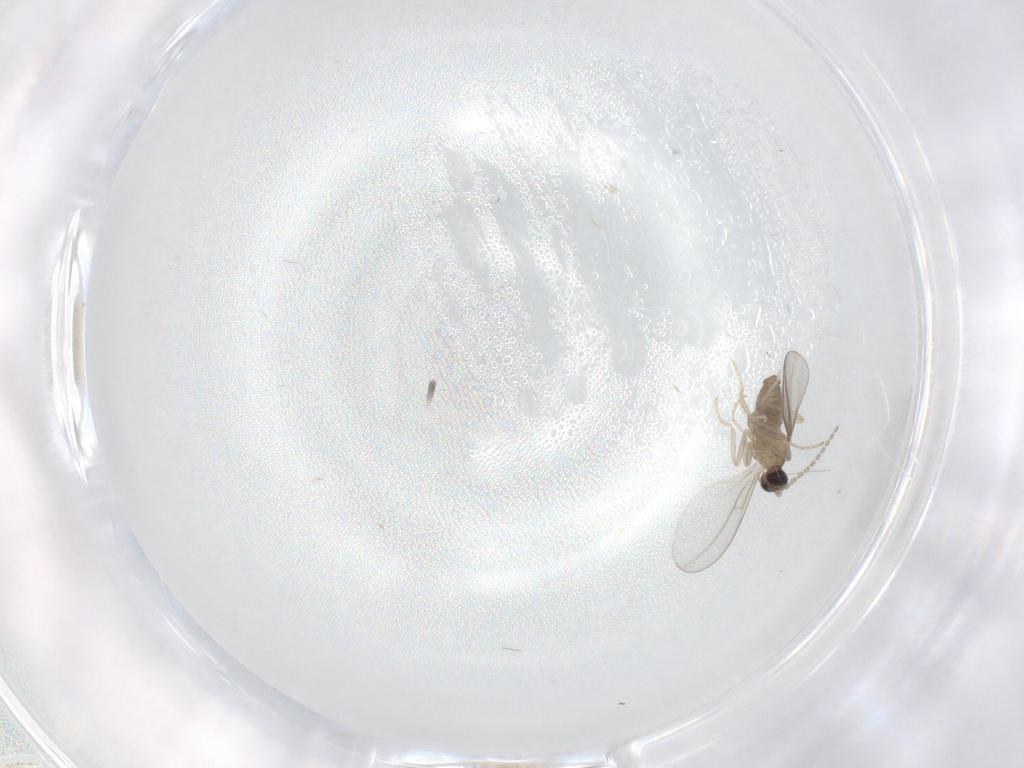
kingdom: Animalia
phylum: Arthropoda
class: Insecta
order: Diptera
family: Cecidomyiidae
